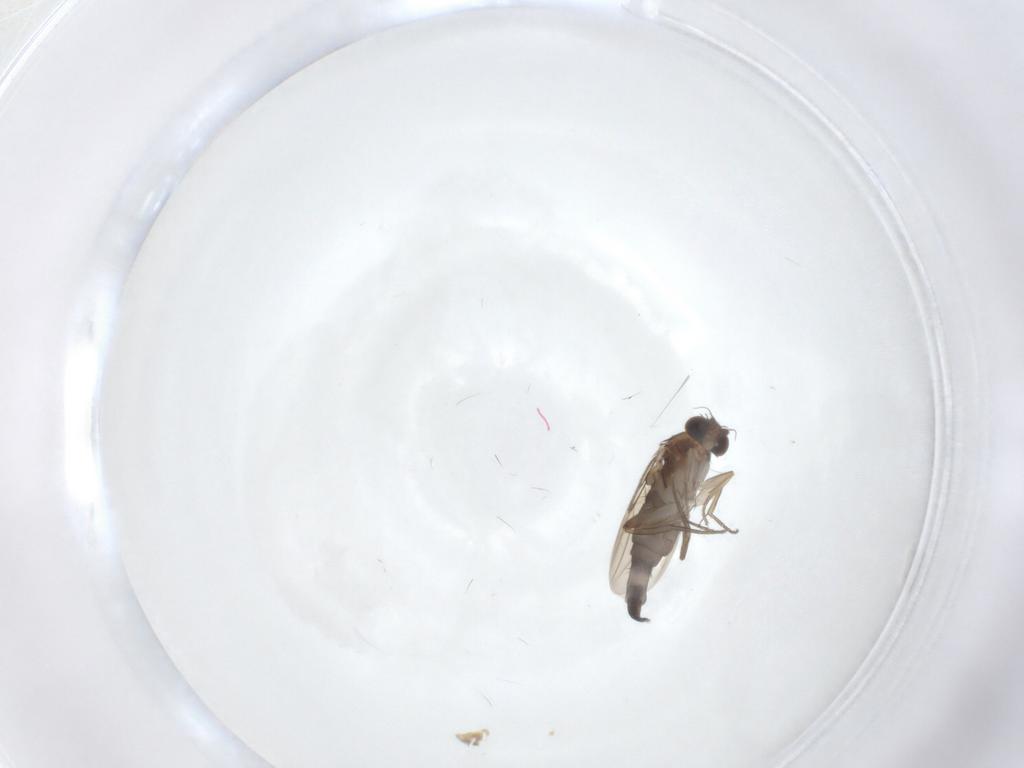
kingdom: Animalia
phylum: Arthropoda
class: Insecta
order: Diptera
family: Phoridae
